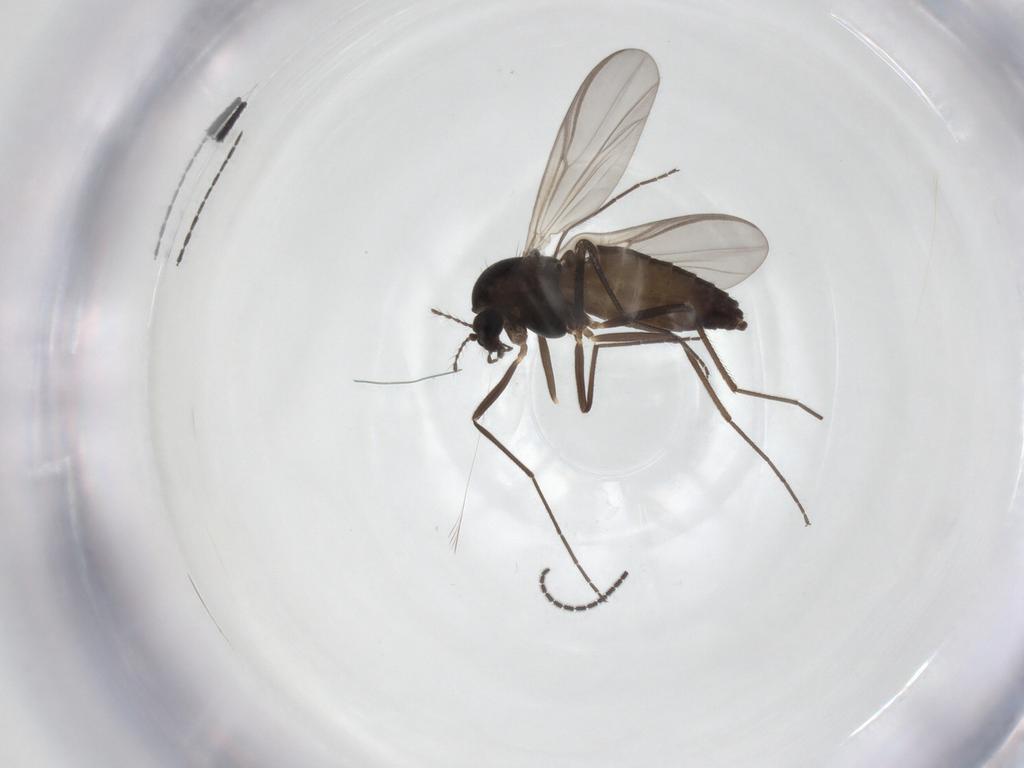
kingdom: Animalia
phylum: Arthropoda
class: Insecta
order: Diptera
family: Chironomidae
